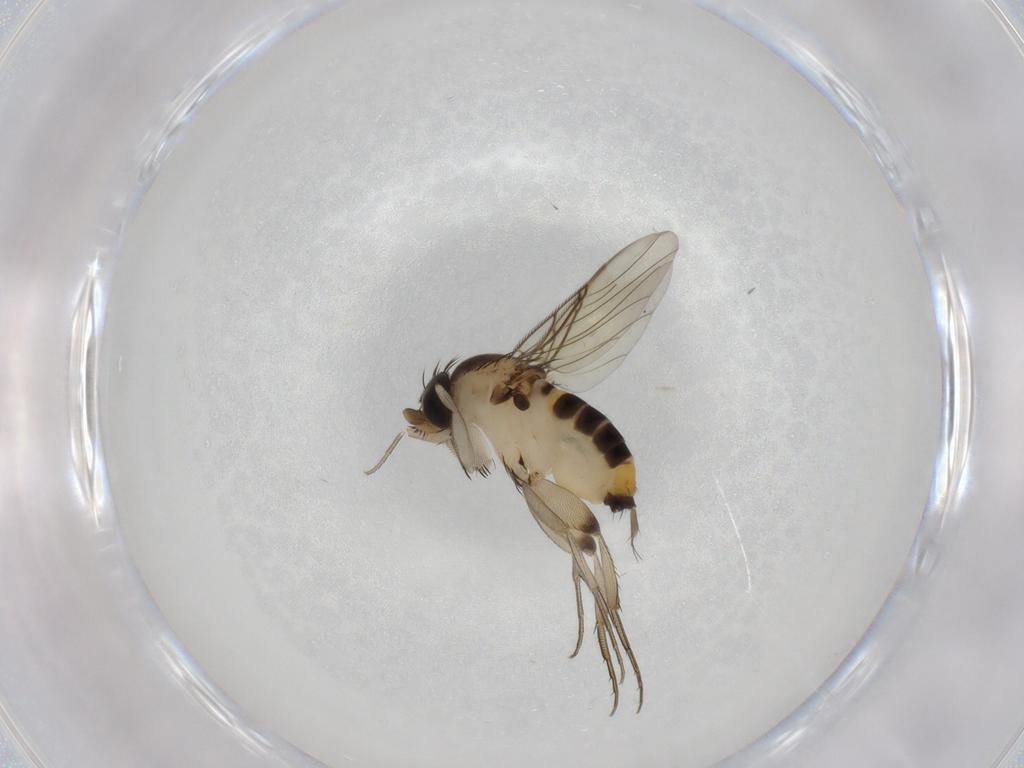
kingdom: Animalia
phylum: Arthropoda
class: Insecta
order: Diptera
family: Phoridae
